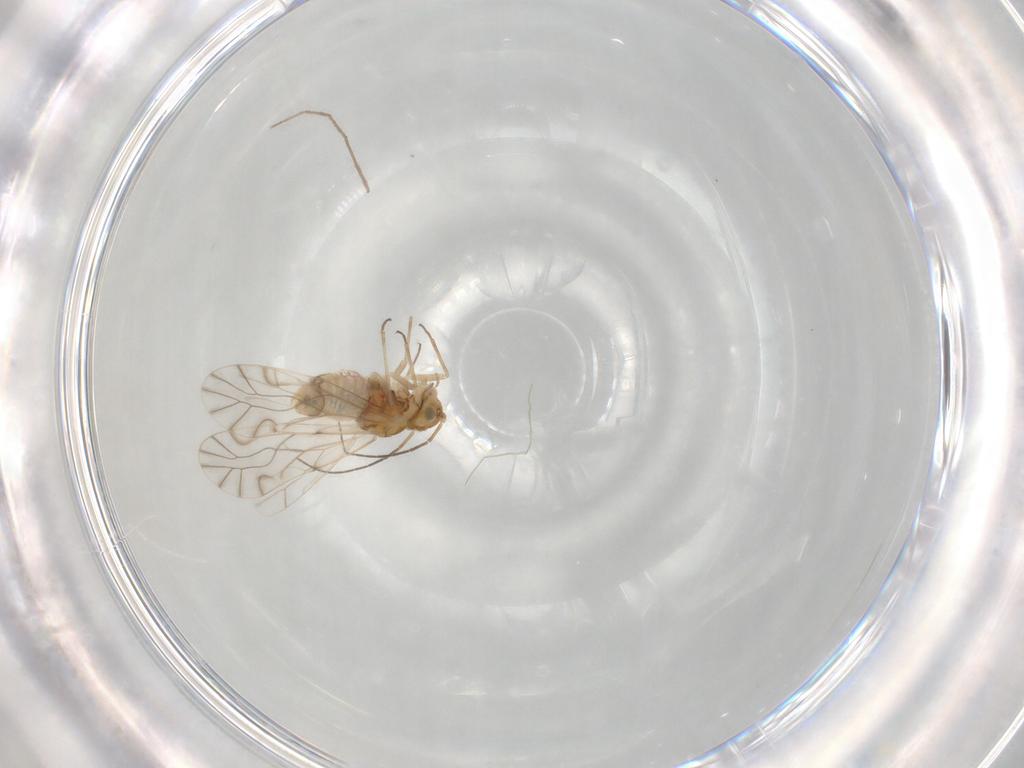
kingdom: Animalia
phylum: Arthropoda
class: Insecta
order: Psocodea
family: Lachesillidae
